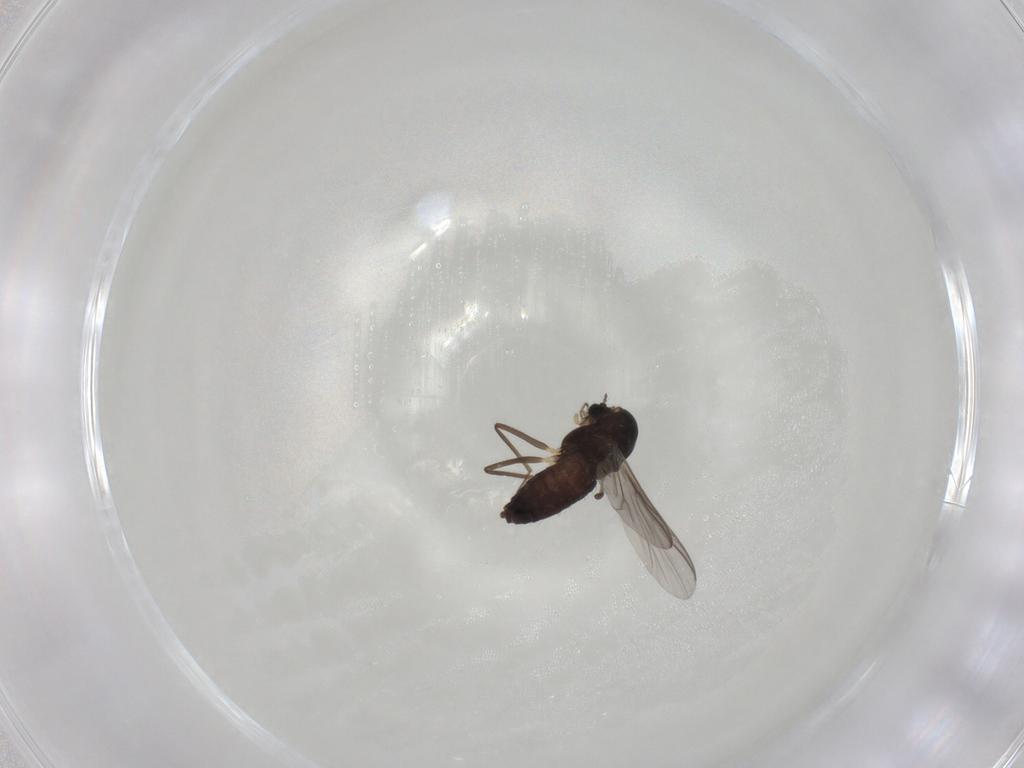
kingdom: Animalia
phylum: Arthropoda
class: Insecta
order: Diptera
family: Chironomidae
